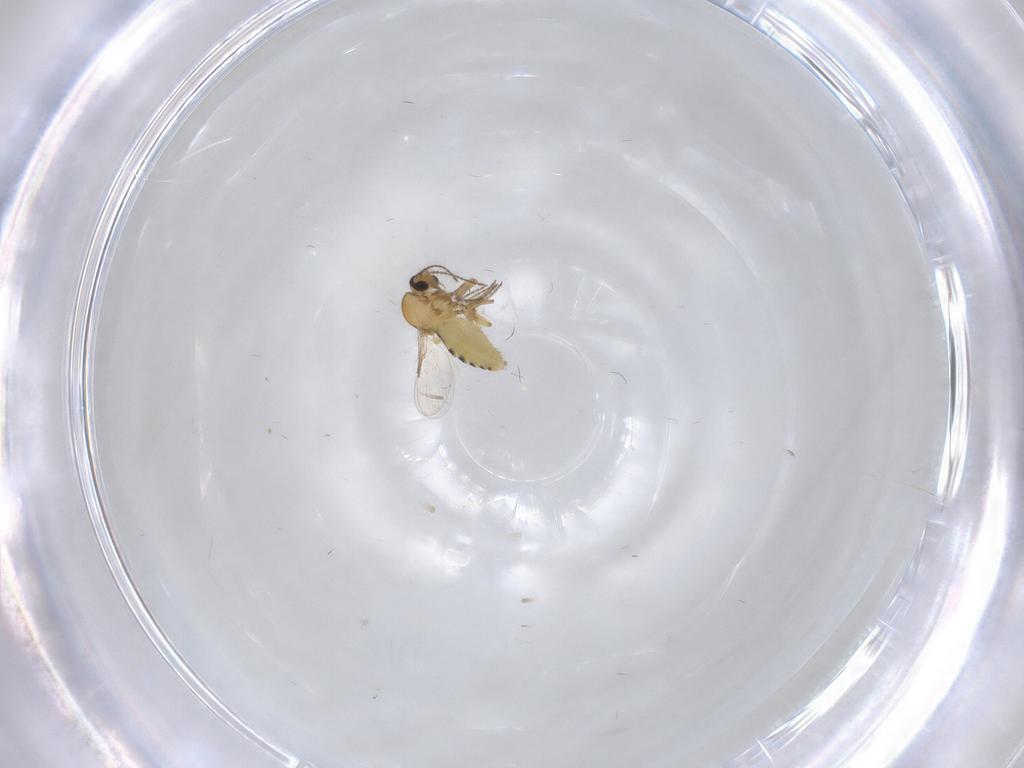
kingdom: Animalia
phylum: Arthropoda
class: Insecta
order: Diptera
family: Ceratopogonidae
